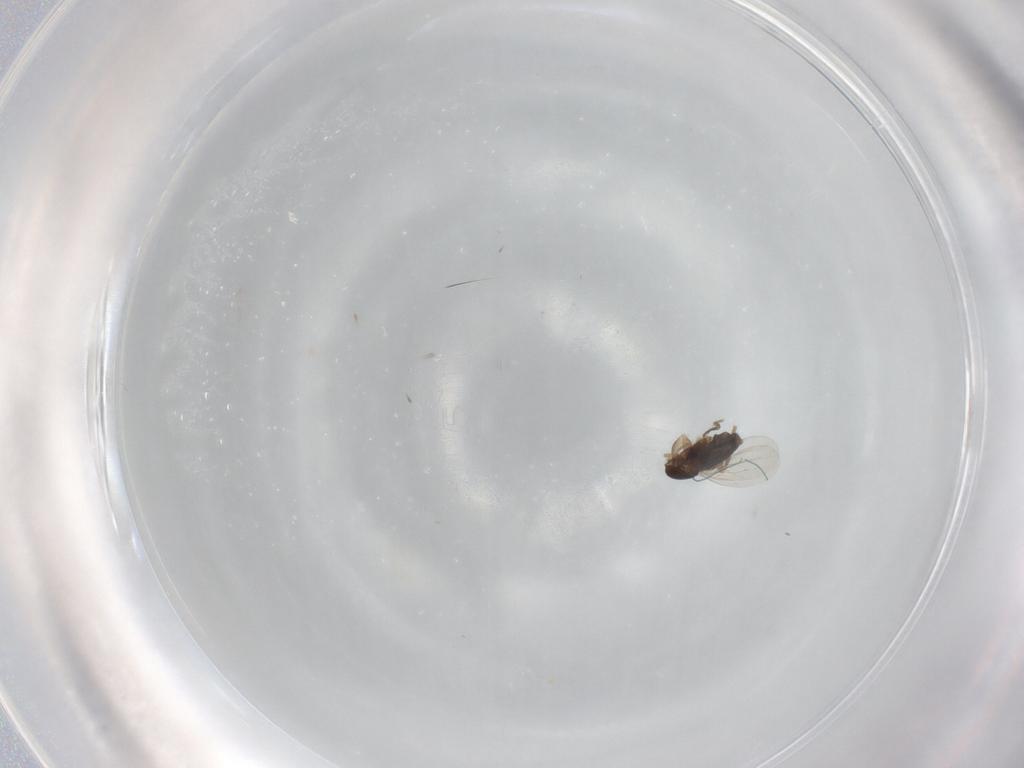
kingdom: Animalia
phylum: Arthropoda
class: Insecta
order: Diptera
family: Phoridae
